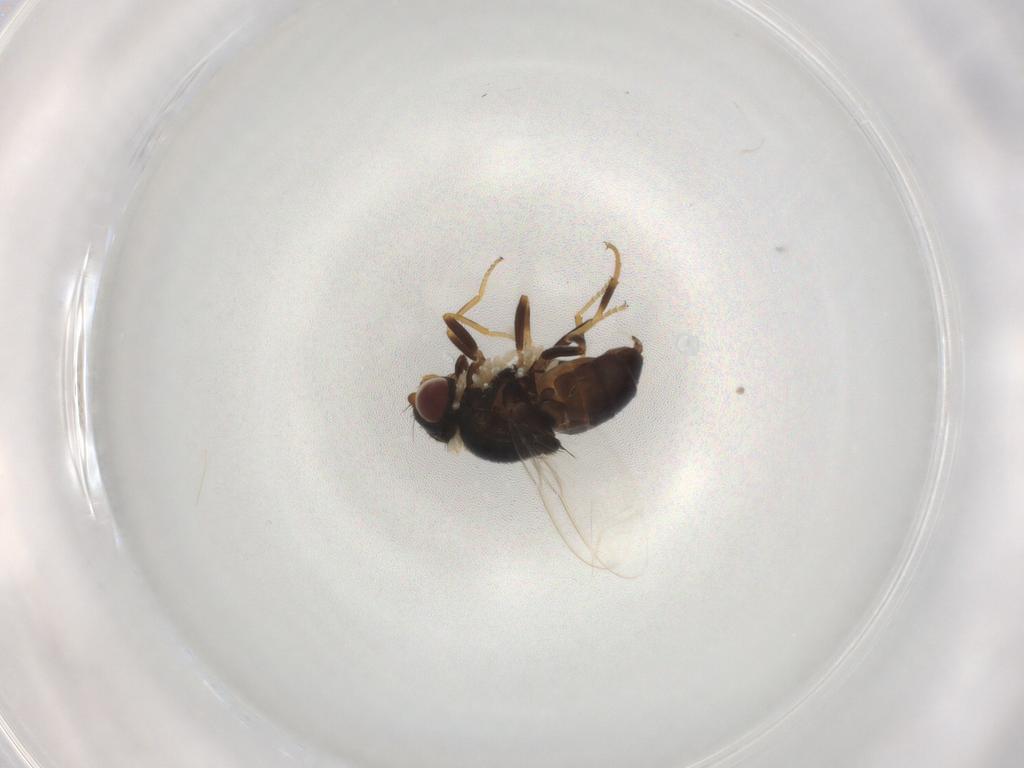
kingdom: Animalia
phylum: Arthropoda
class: Insecta
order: Diptera
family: Chloropidae
